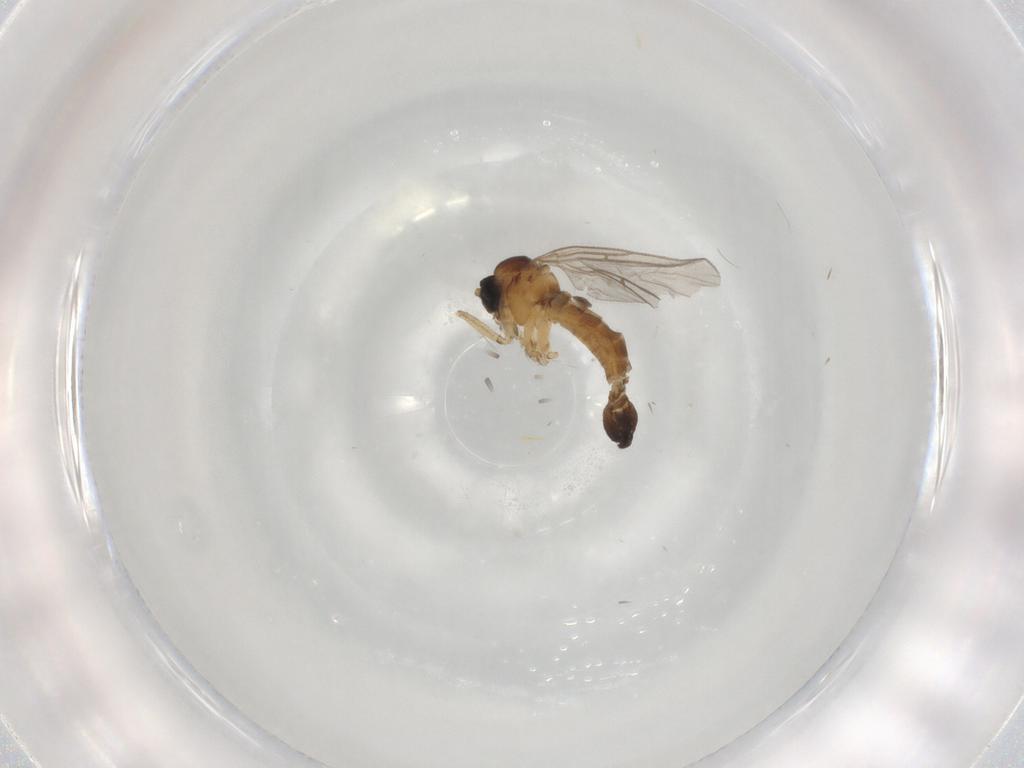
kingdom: Animalia
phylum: Arthropoda
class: Insecta
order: Diptera
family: Sciaridae
